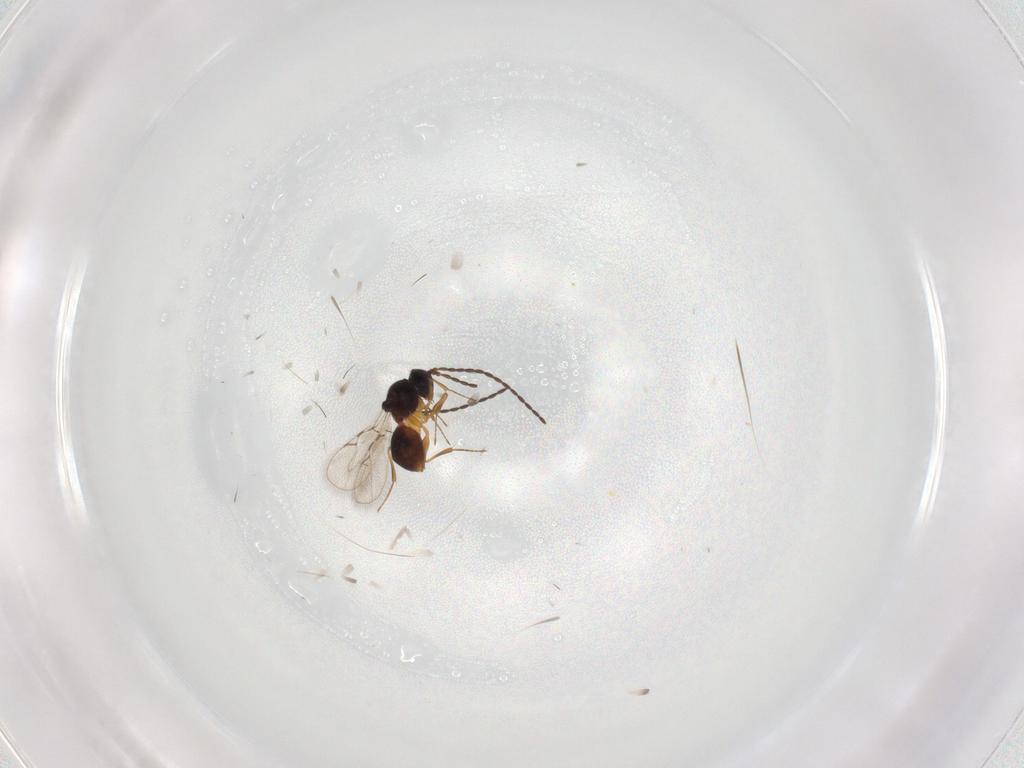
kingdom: Animalia
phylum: Arthropoda
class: Insecta
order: Hymenoptera
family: Figitidae
